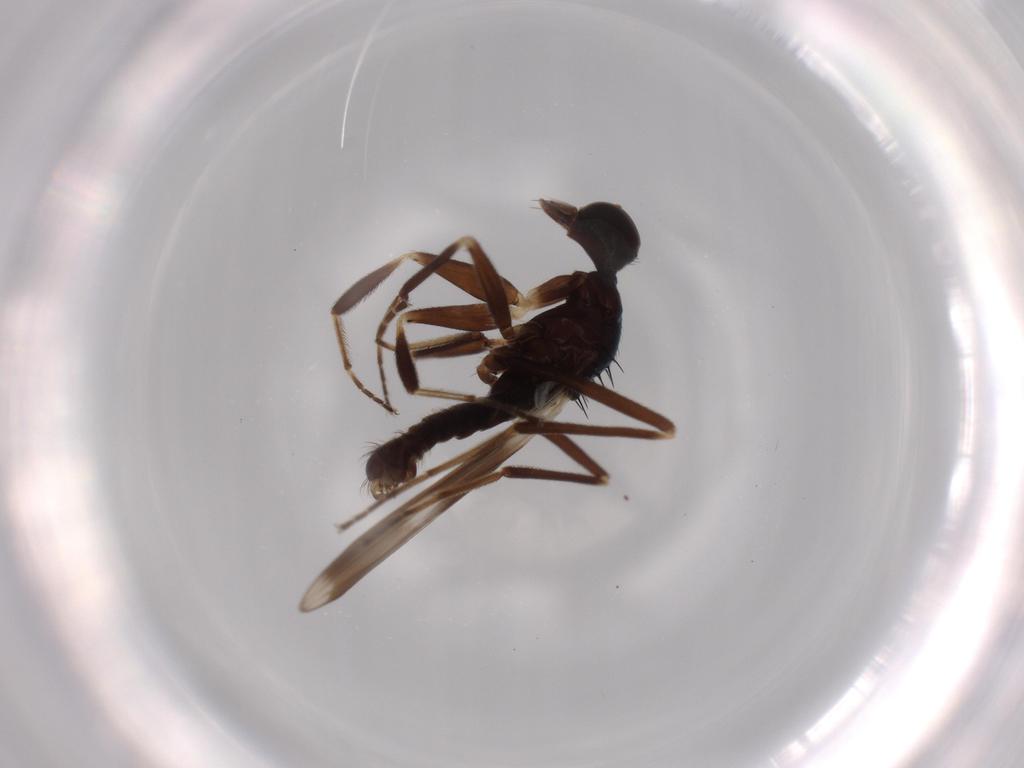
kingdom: Animalia
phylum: Arthropoda
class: Insecta
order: Diptera
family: Hybotidae
